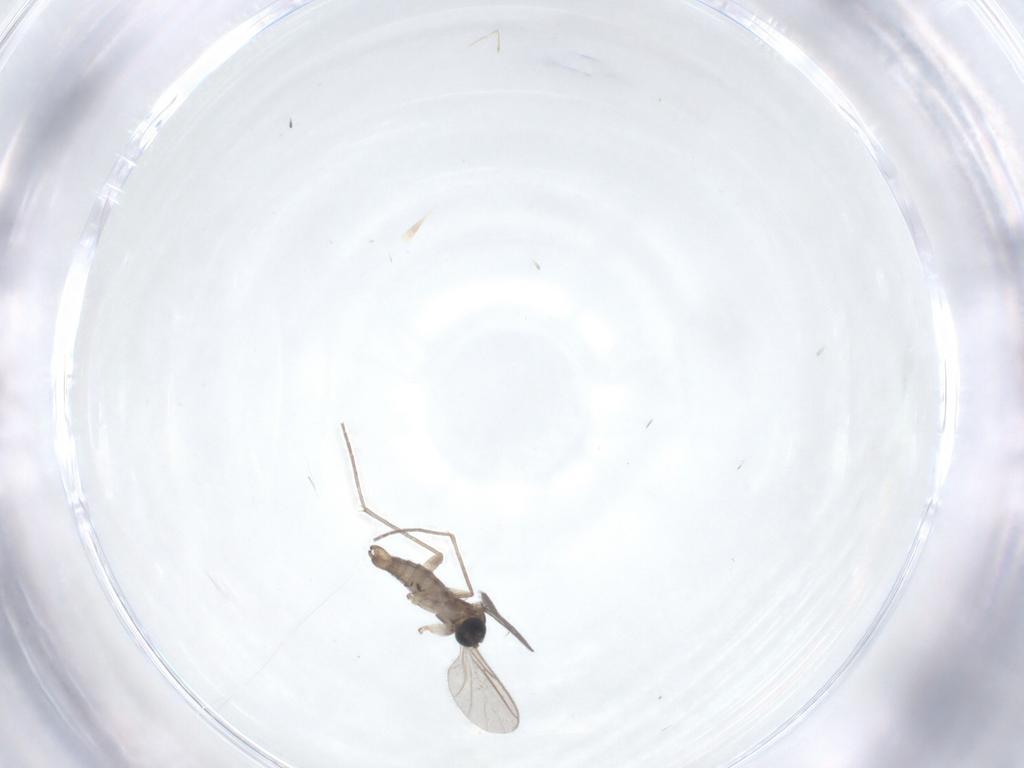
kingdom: Animalia
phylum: Arthropoda
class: Insecta
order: Diptera
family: Sciaridae
